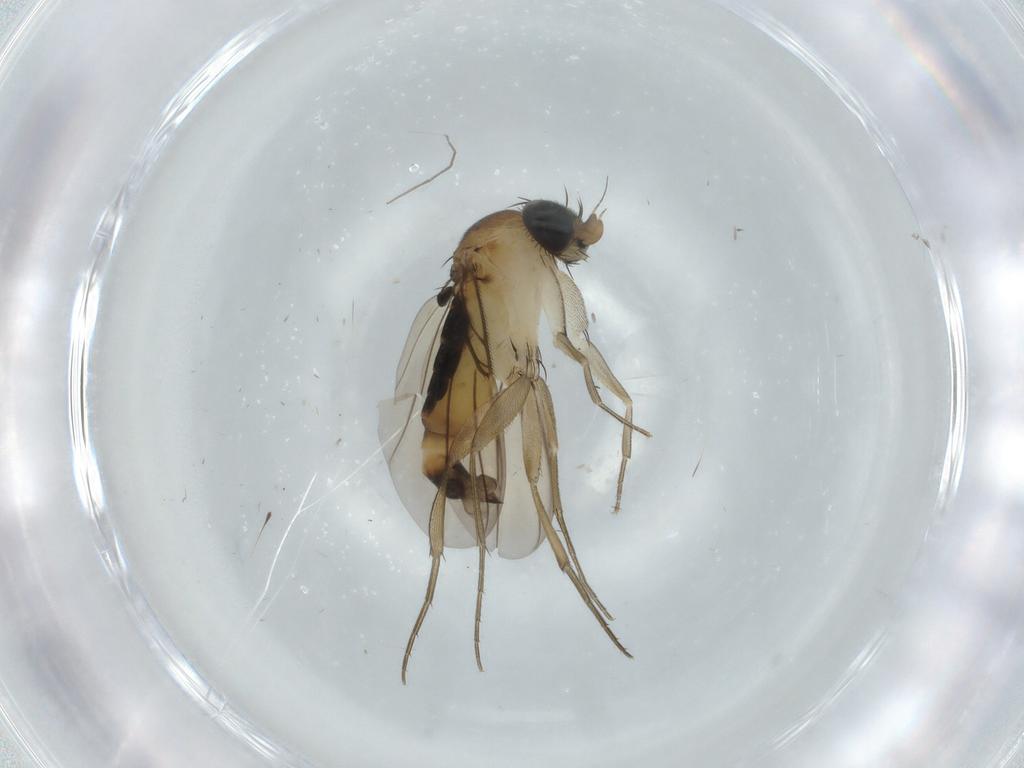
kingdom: Animalia
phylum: Arthropoda
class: Insecta
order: Diptera
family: Phoridae
